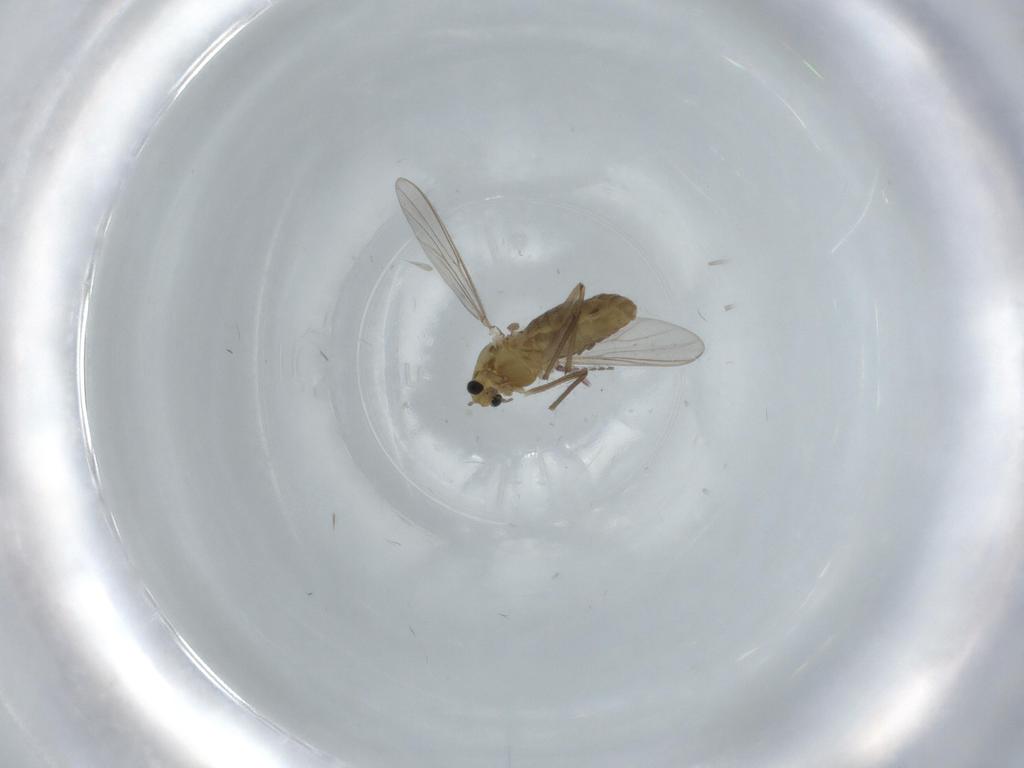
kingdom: Animalia
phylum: Arthropoda
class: Insecta
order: Diptera
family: Chironomidae
